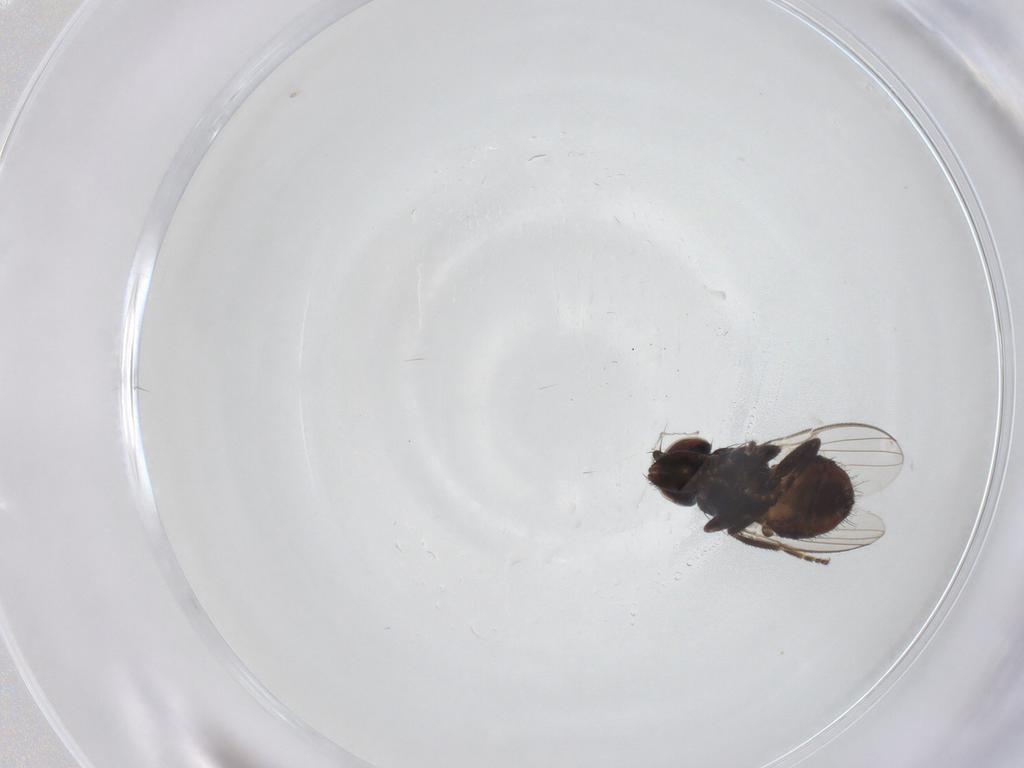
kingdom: Animalia
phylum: Arthropoda
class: Insecta
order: Diptera
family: Milichiidae
